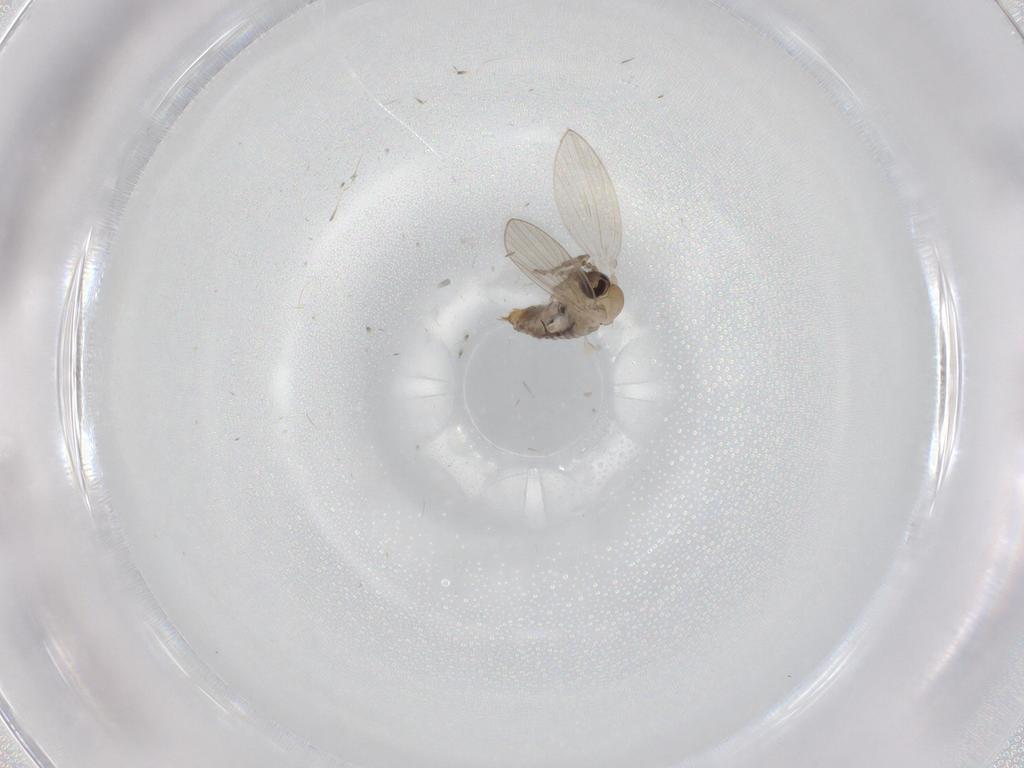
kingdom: Animalia
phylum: Arthropoda
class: Insecta
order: Diptera
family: Psychodidae
